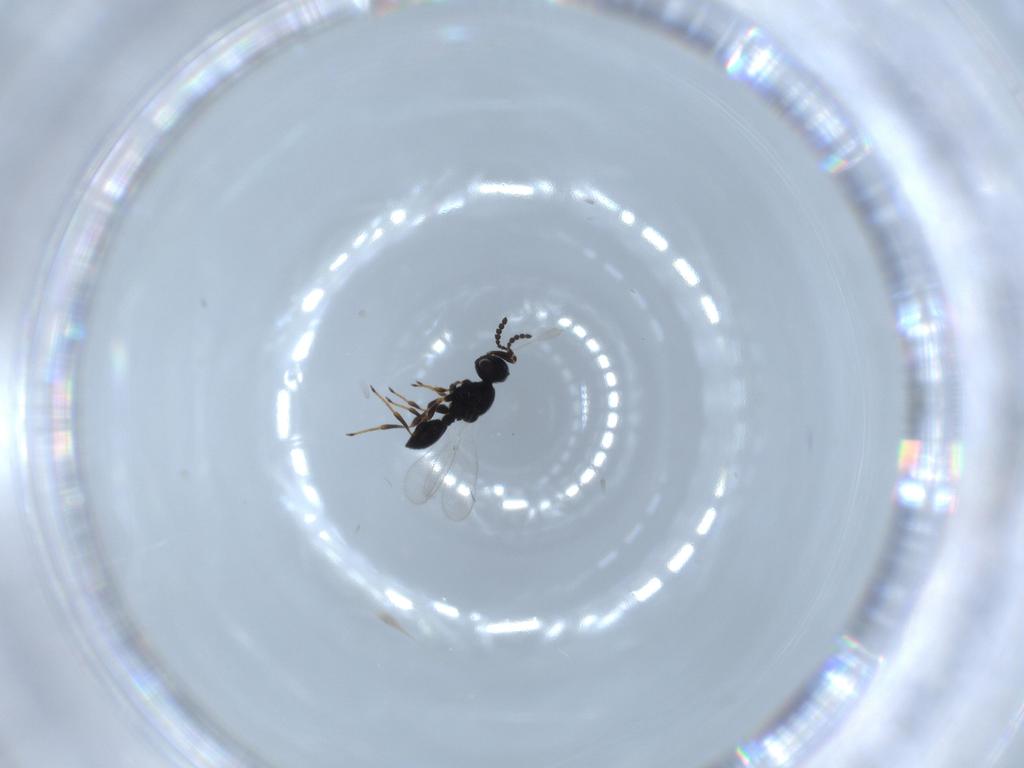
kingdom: Animalia
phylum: Arthropoda
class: Insecta
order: Hymenoptera
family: Platygastridae
